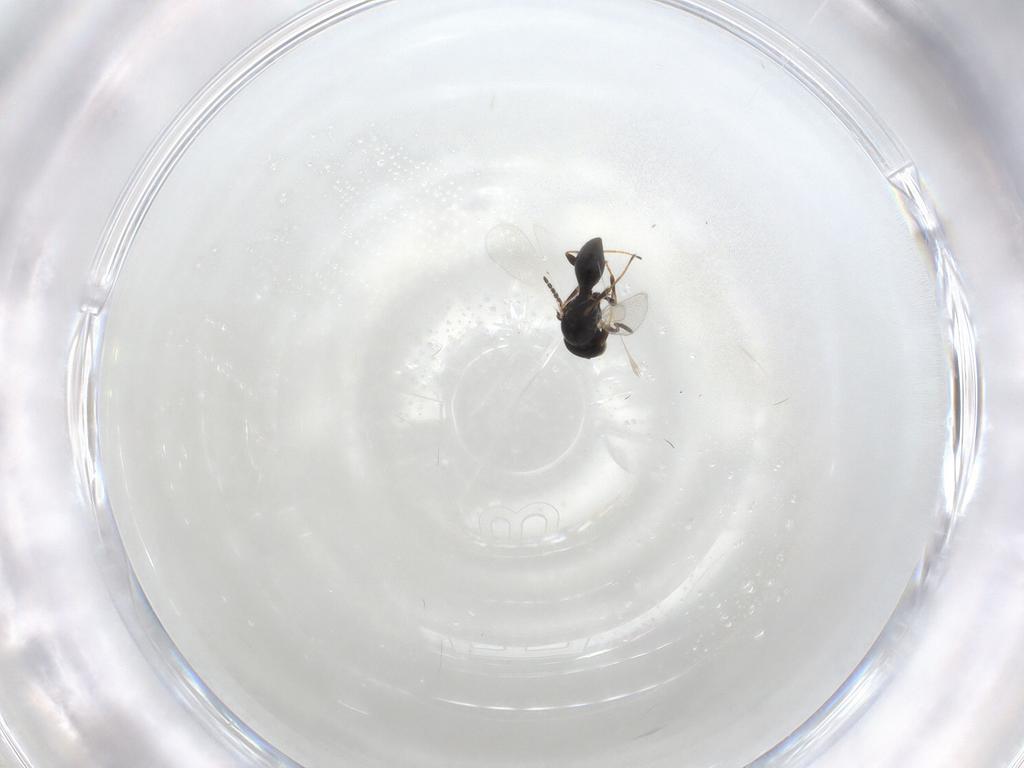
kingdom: Animalia
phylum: Arthropoda
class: Insecta
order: Hymenoptera
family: Platygastridae
